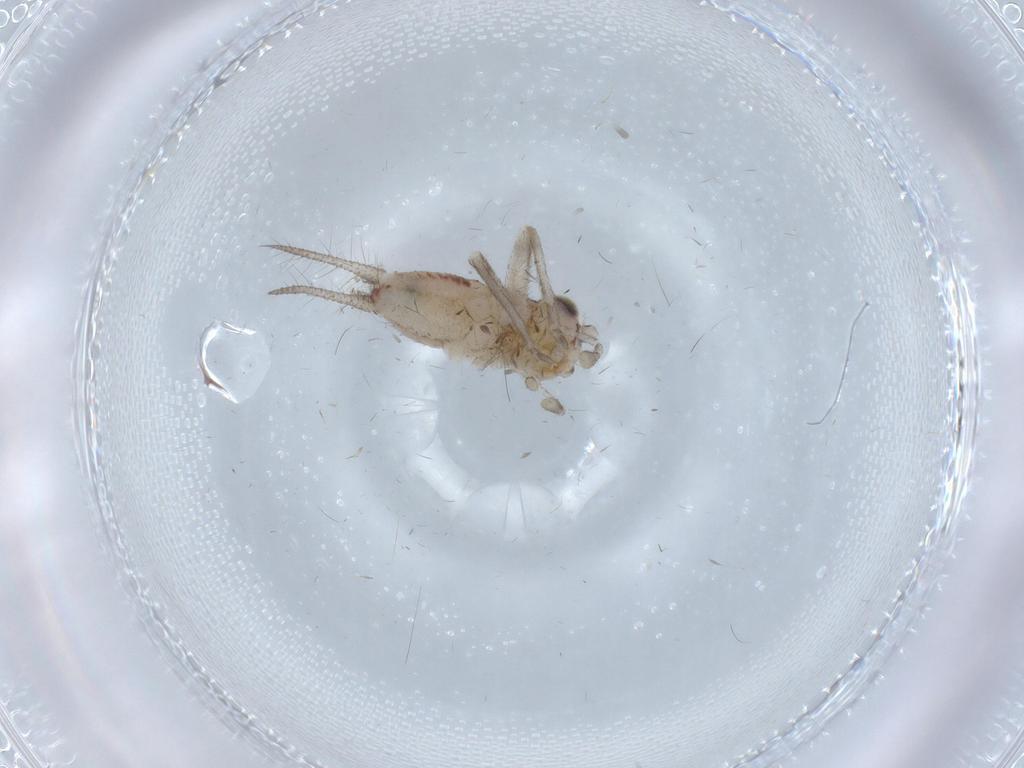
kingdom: Animalia
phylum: Arthropoda
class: Insecta
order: Orthoptera
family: Trigonidiidae
